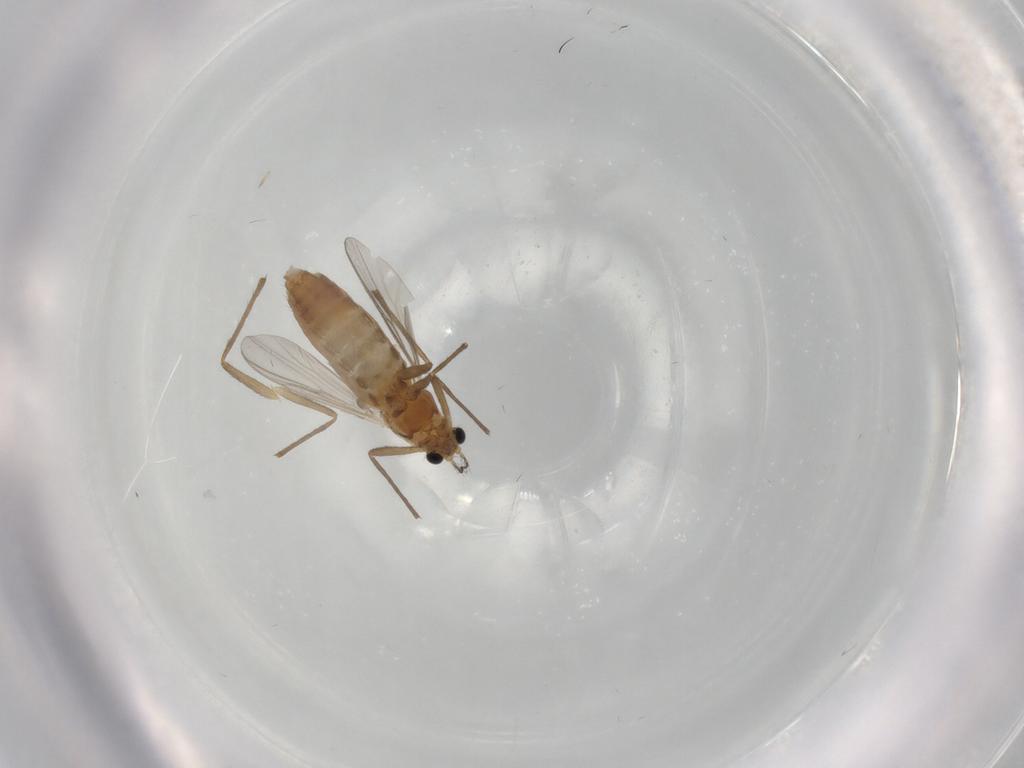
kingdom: Animalia
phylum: Arthropoda
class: Insecta
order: Diptera
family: Chironomidae
